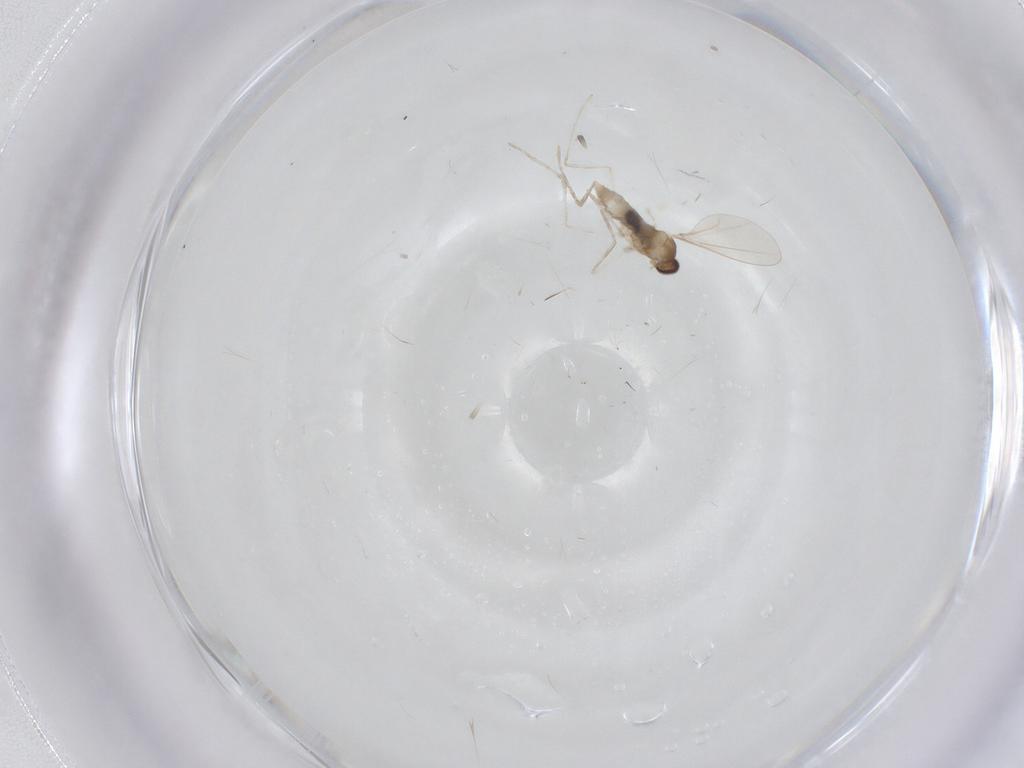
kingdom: Animalia
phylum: Arthropoda
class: Insecta
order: Diptera
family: Cecidomyiidae
